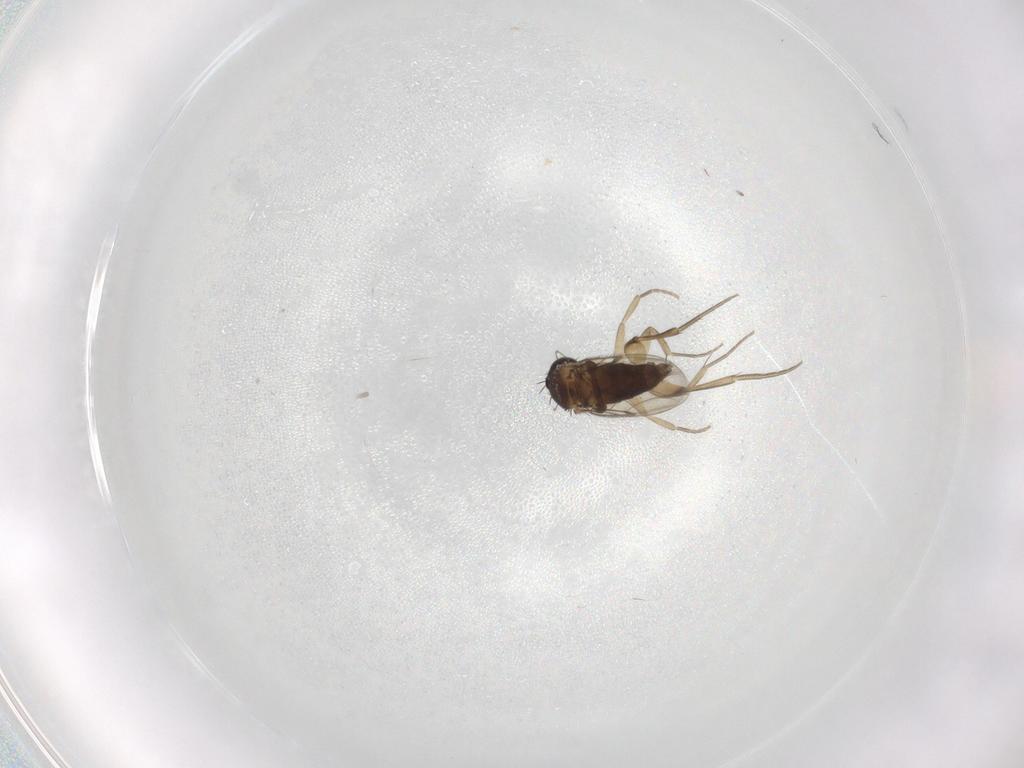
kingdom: Animalia
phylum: Arthropoda
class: Insecta
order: Diptera
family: Phoridae
